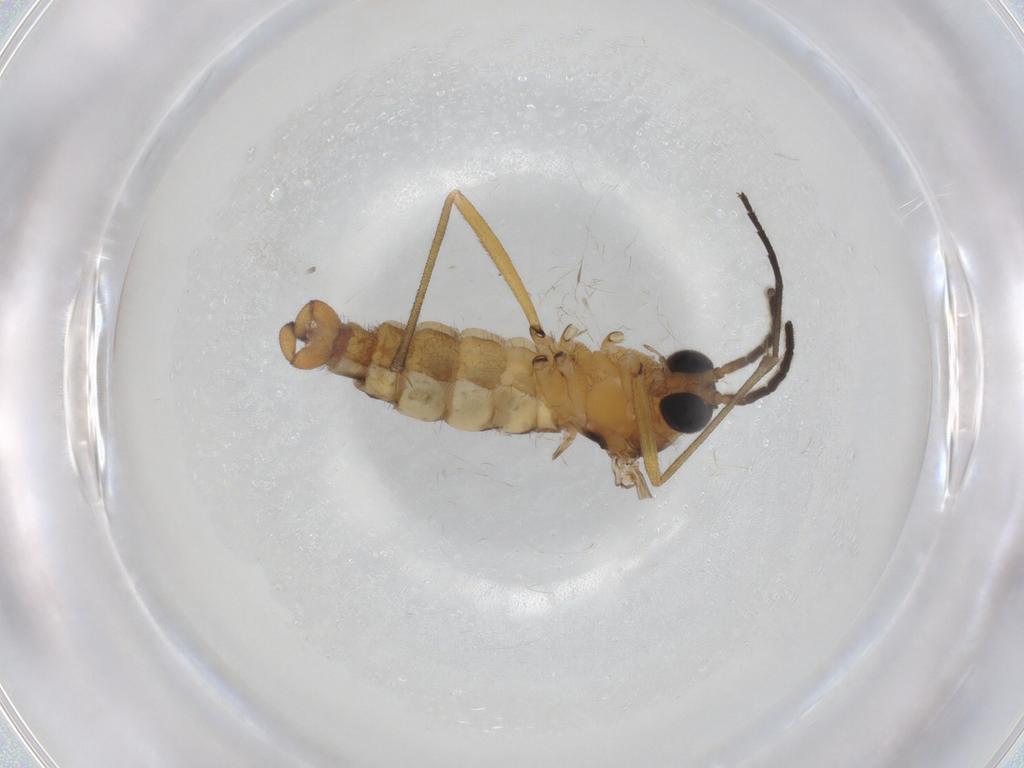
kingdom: Animalia
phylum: Arthropoda
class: Insecta
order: Diptera
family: Sciaridae
